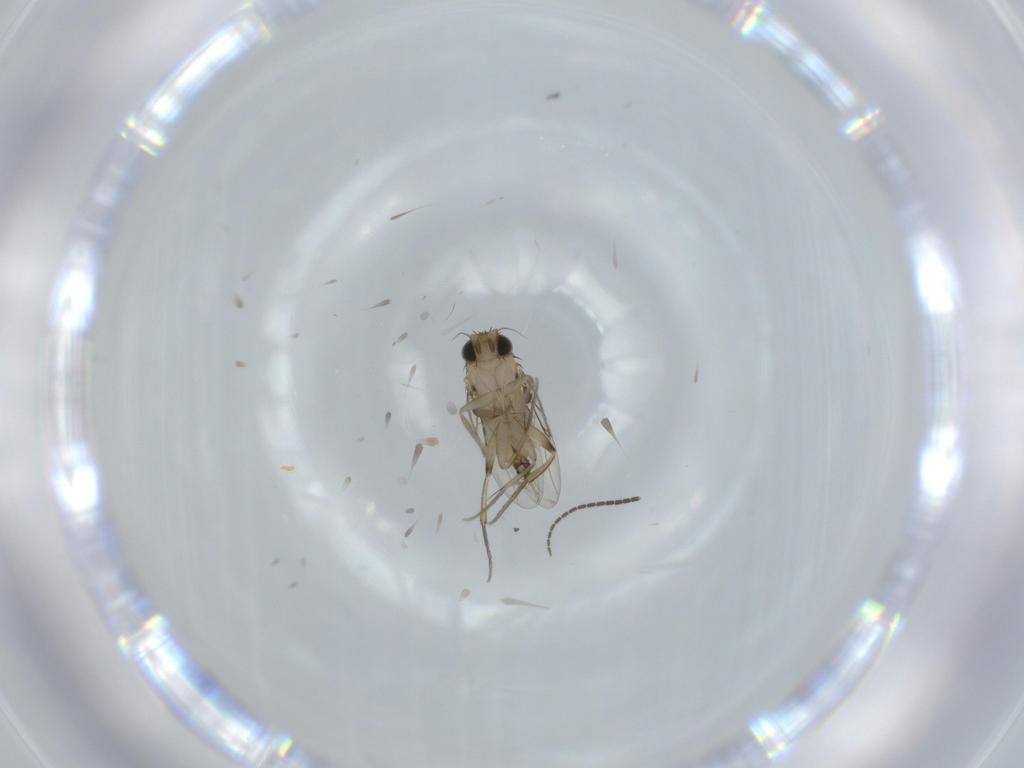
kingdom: Animalia
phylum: Arthropoda
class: Insecta
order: Diptera
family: Sciaridae
